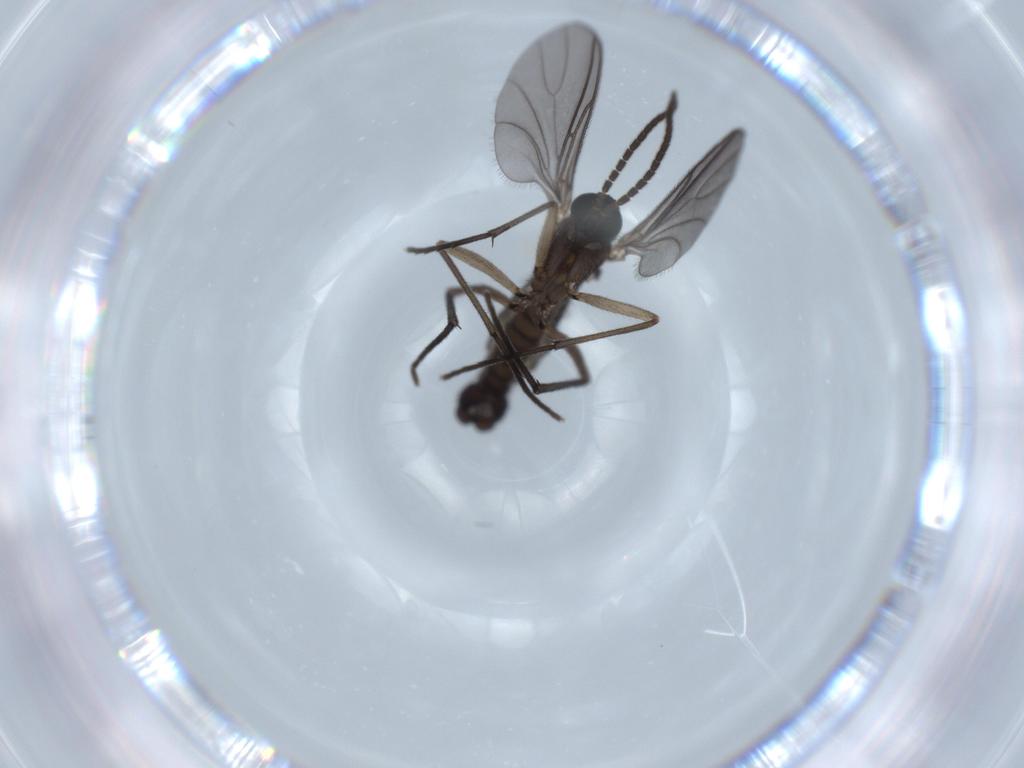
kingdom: Animalia
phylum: Arthropoda
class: Insecta
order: Diptera
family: Sciaridae
